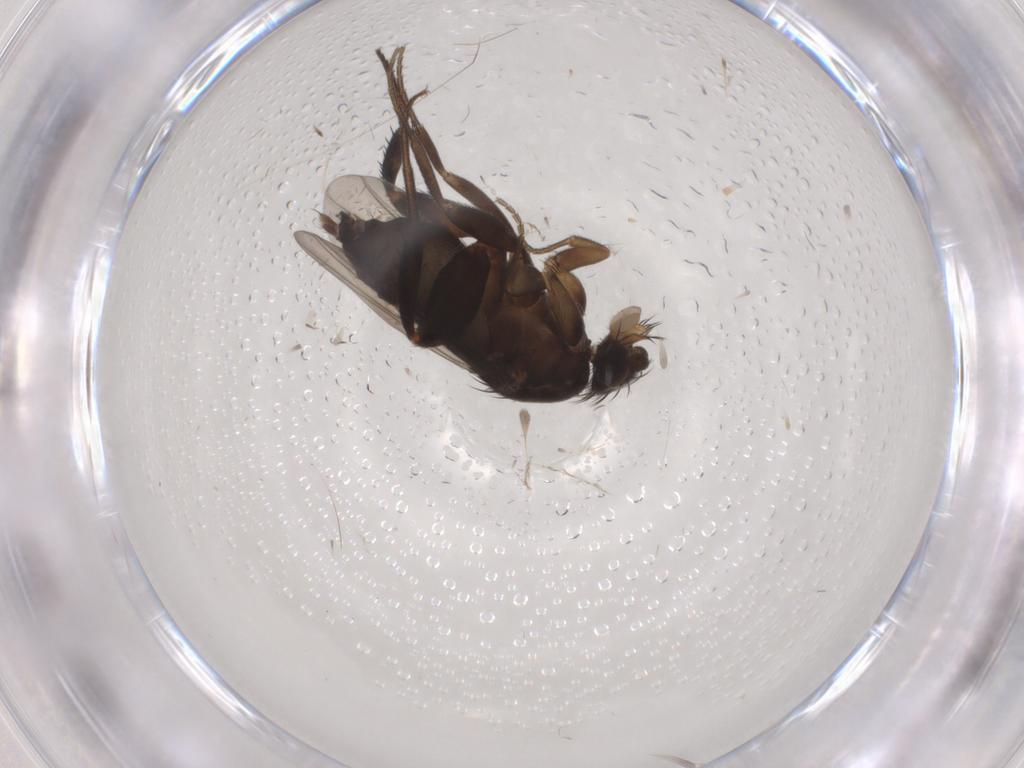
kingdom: Animalia
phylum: Arthropoda
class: Insecta
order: Diptera
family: Phoridae
